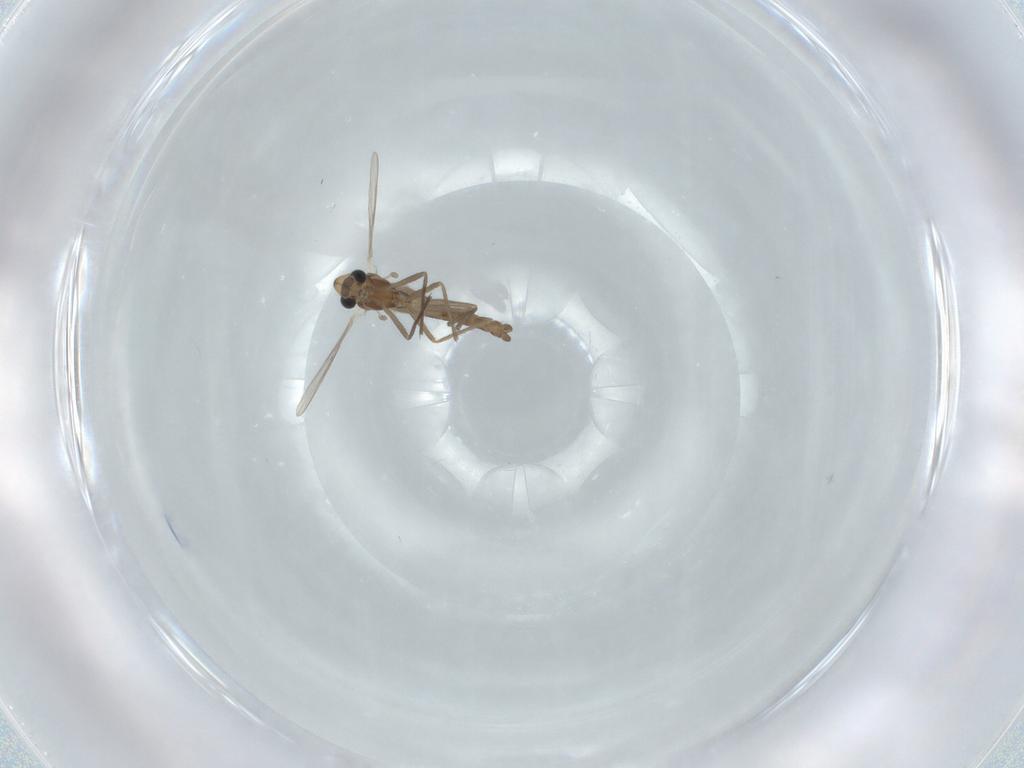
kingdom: Animalia
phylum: Arthropoda
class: Insecta
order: Diptera
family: Chironomidae
